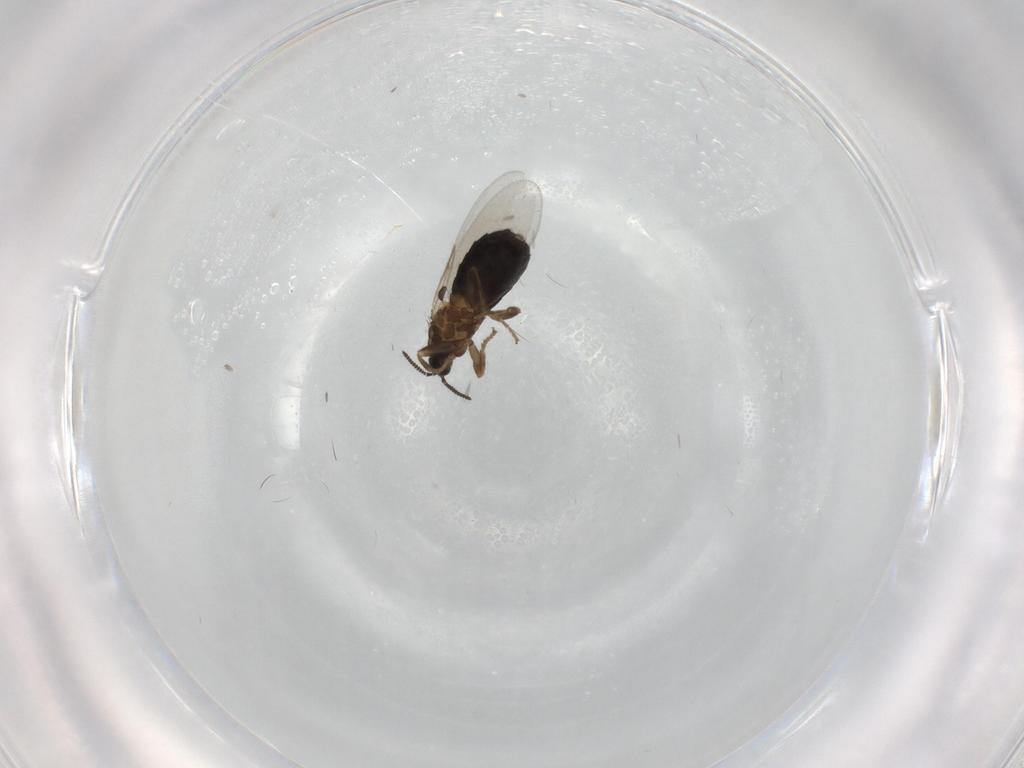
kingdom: Animalia
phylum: Arthropoda
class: Insecta
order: Diptera
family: Scatopsidae
